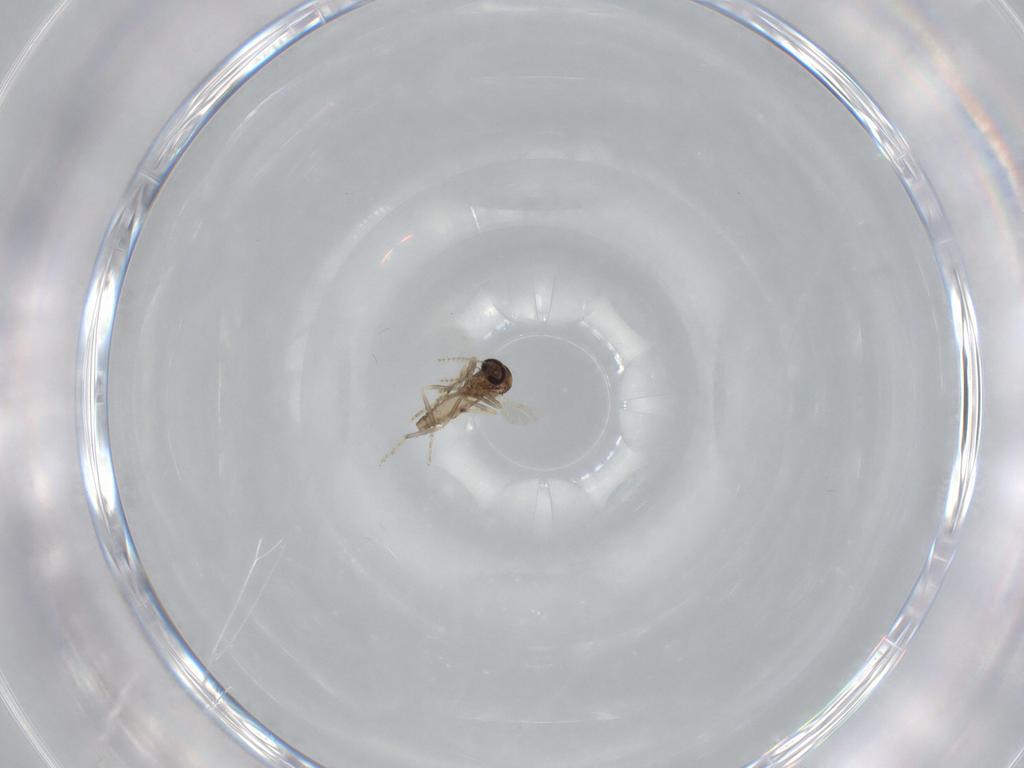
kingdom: Animalia
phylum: Arthropoda
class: Insecta
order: Diptera
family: Ceratopogonidae
